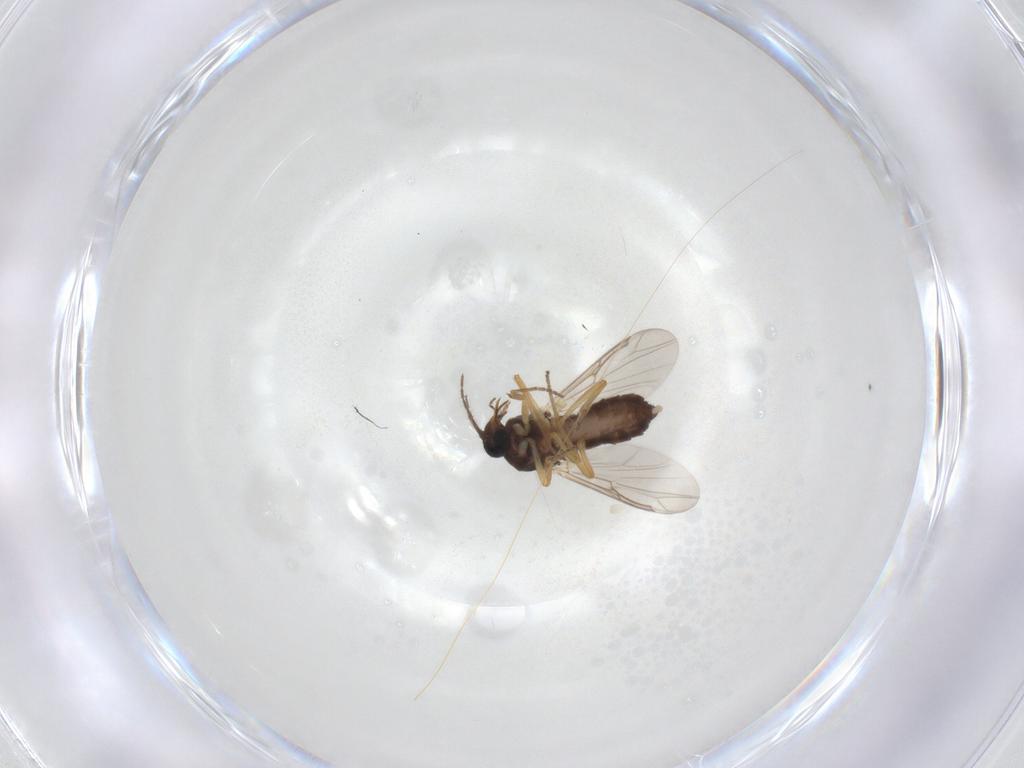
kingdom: Animalia
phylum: Arthropoda
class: Insecta
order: Diptera
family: Ceratopogonidae
